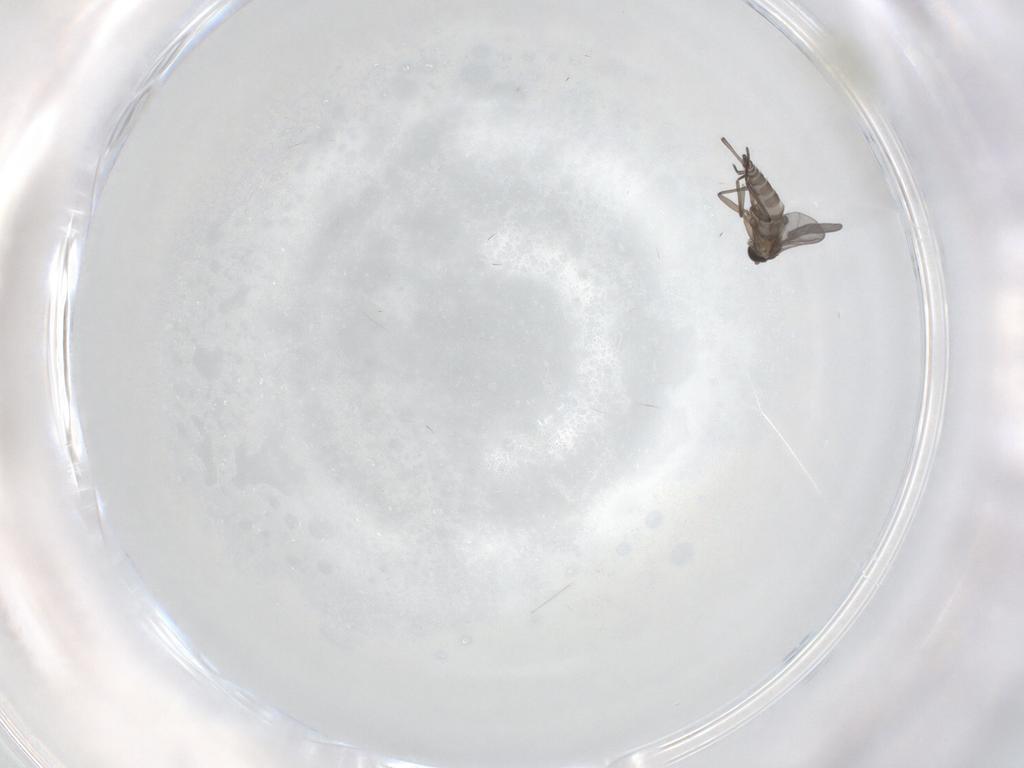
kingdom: Animalia
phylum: Arthropoda
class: Insecta
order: Diptera
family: Sciaridae
